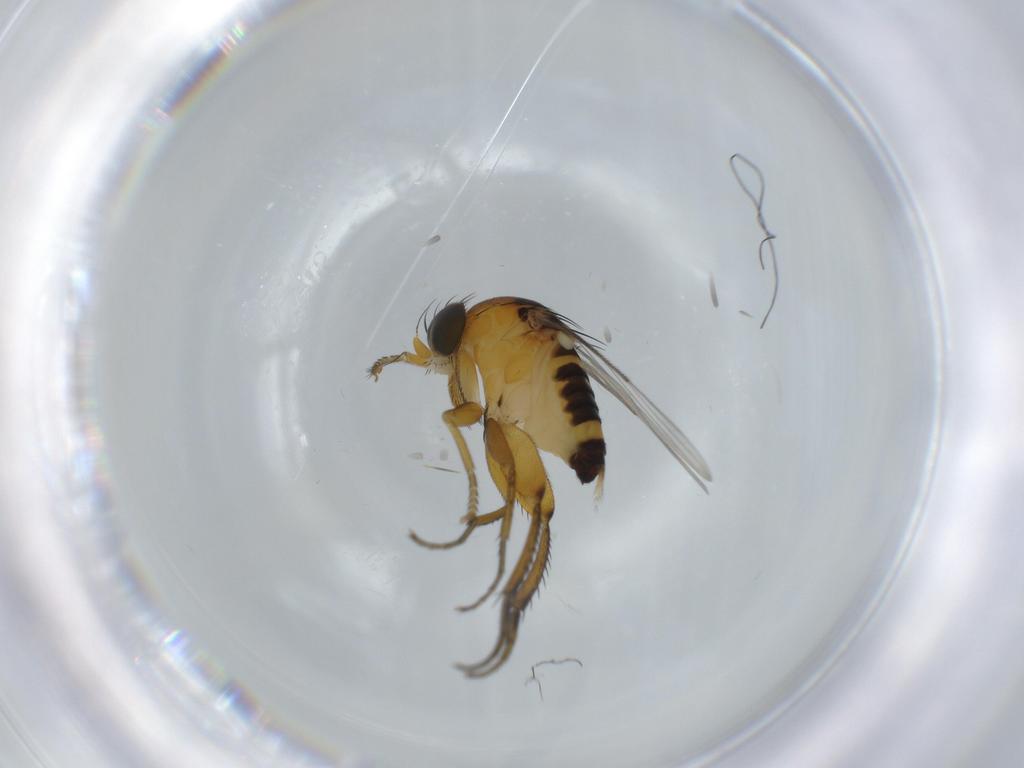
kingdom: Animalia
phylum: Arthropoda
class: Insecta
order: Diptera
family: Phoridae
